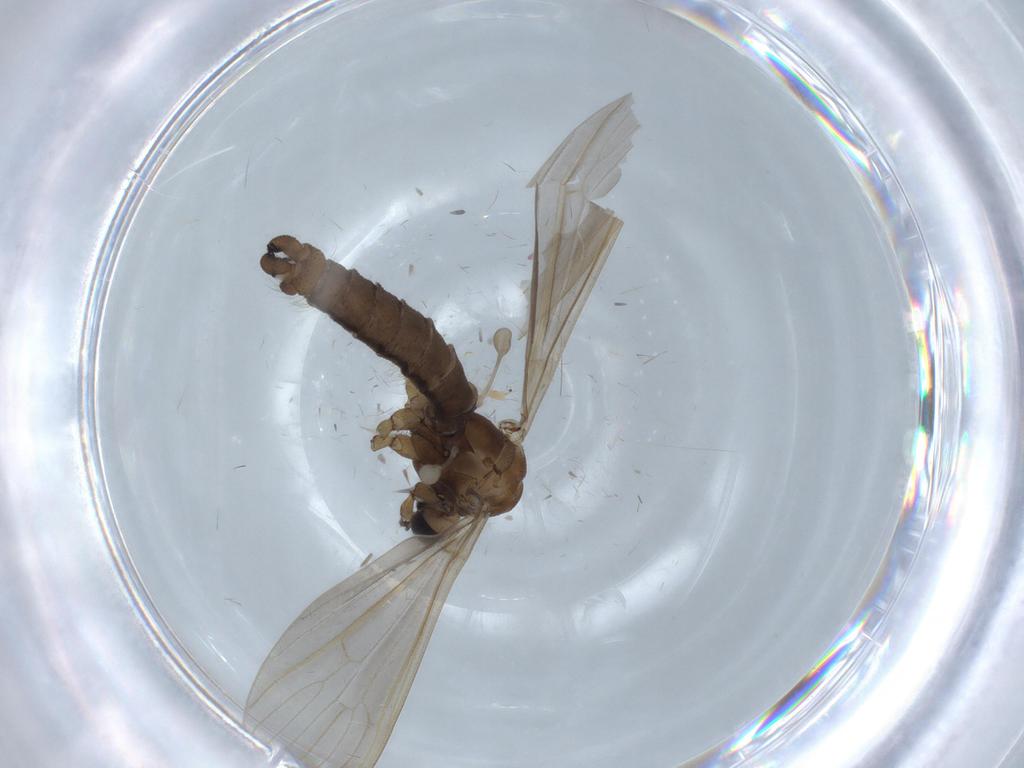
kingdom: Animalia
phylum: Arthropoda
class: Insecta
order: Diptera
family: Limoniidae
